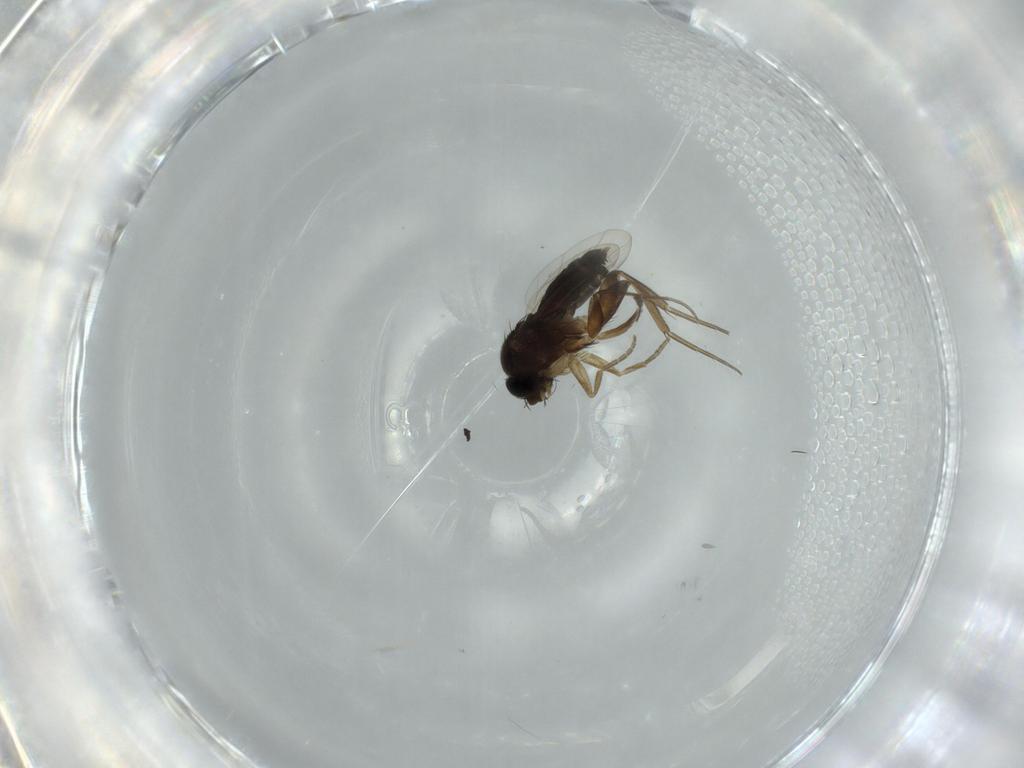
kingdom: Animalia
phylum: Arthropoda
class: Insecta
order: Diptera
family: Phoridae
